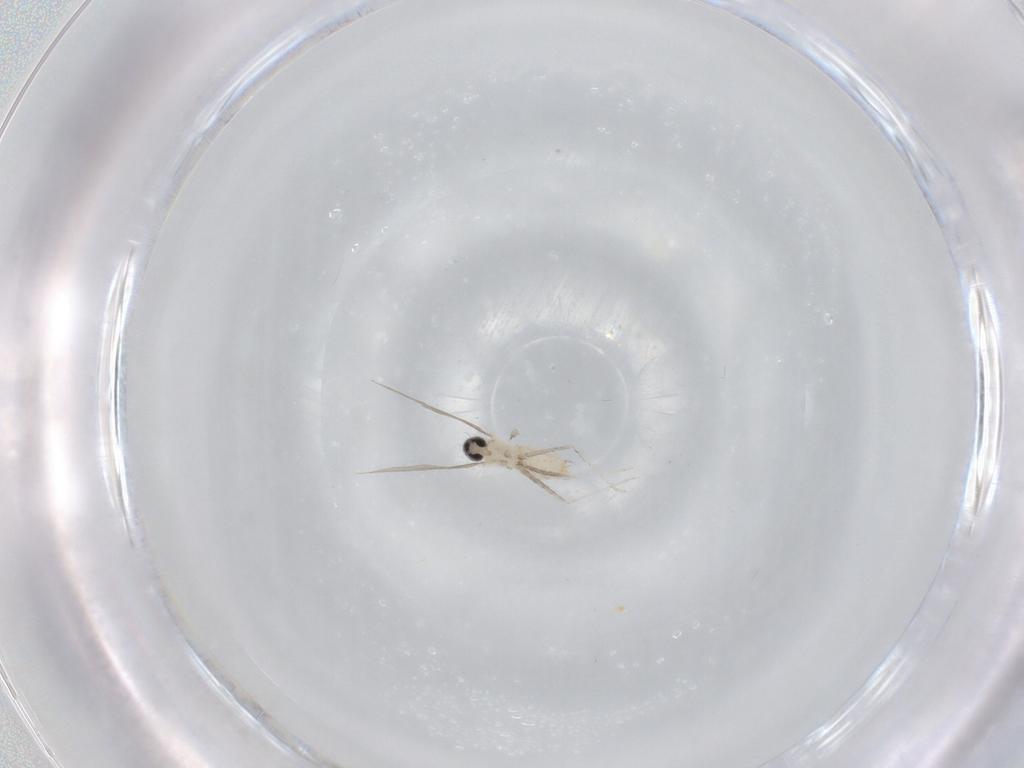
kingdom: Animalia
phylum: Arthropoda
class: Insecta
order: Diptera
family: Cecidomyiidae
